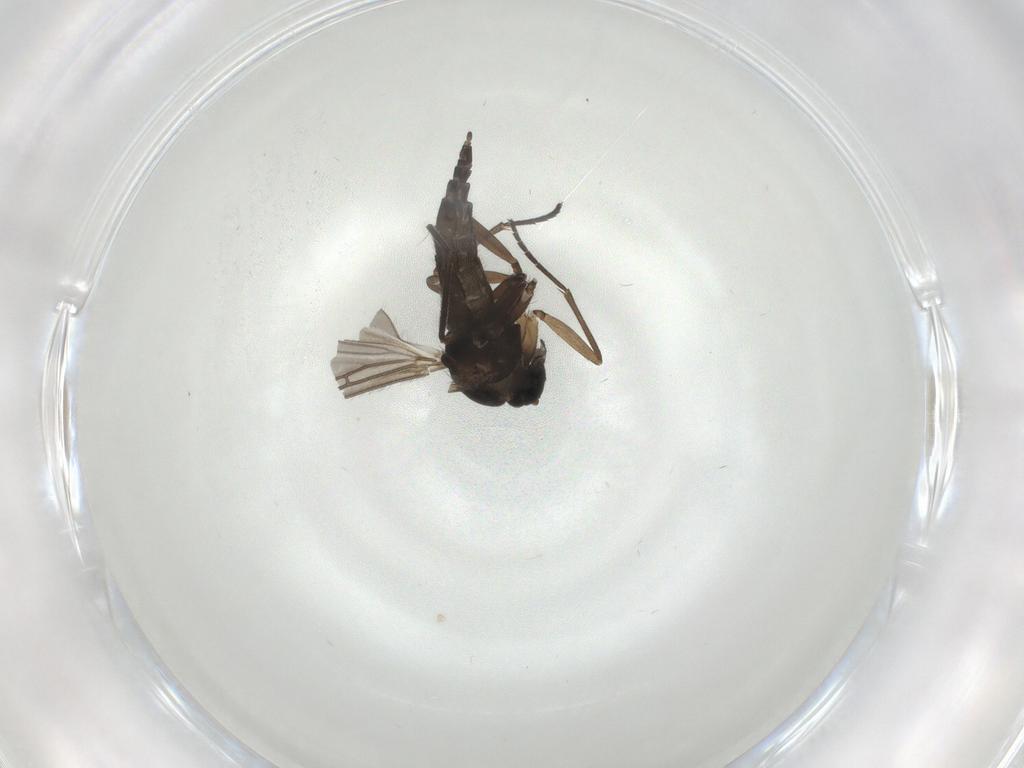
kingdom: Animalia
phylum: Arthropoda
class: Insecta
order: Diptera
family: Sciaridae
